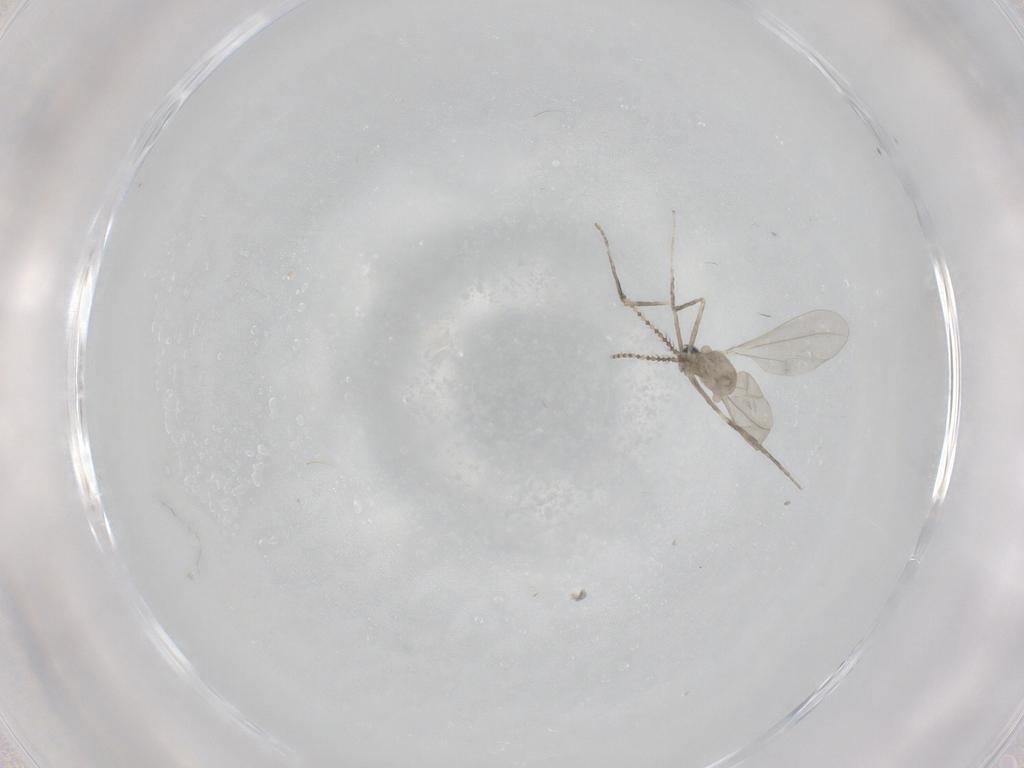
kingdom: Animalia
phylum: Arthropoda
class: Insecta
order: Diptera
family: Cecidomyiidae
